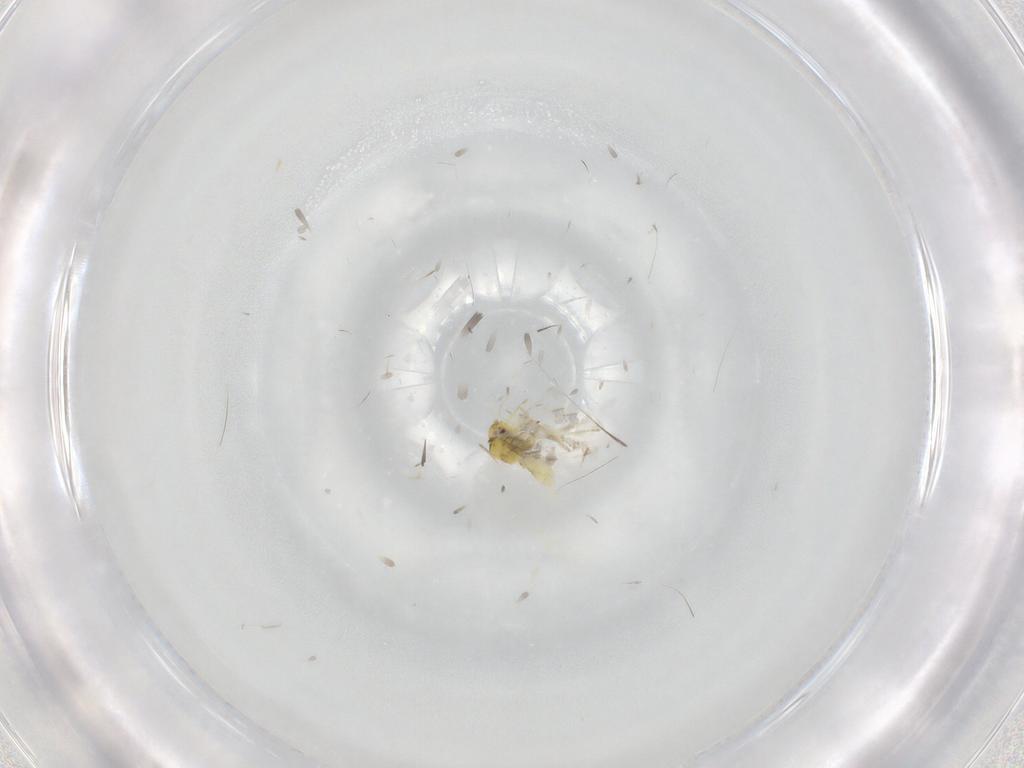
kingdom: Animalia
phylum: Arthropoda
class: Insecta
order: Hemiptera
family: Aleyrodidae
